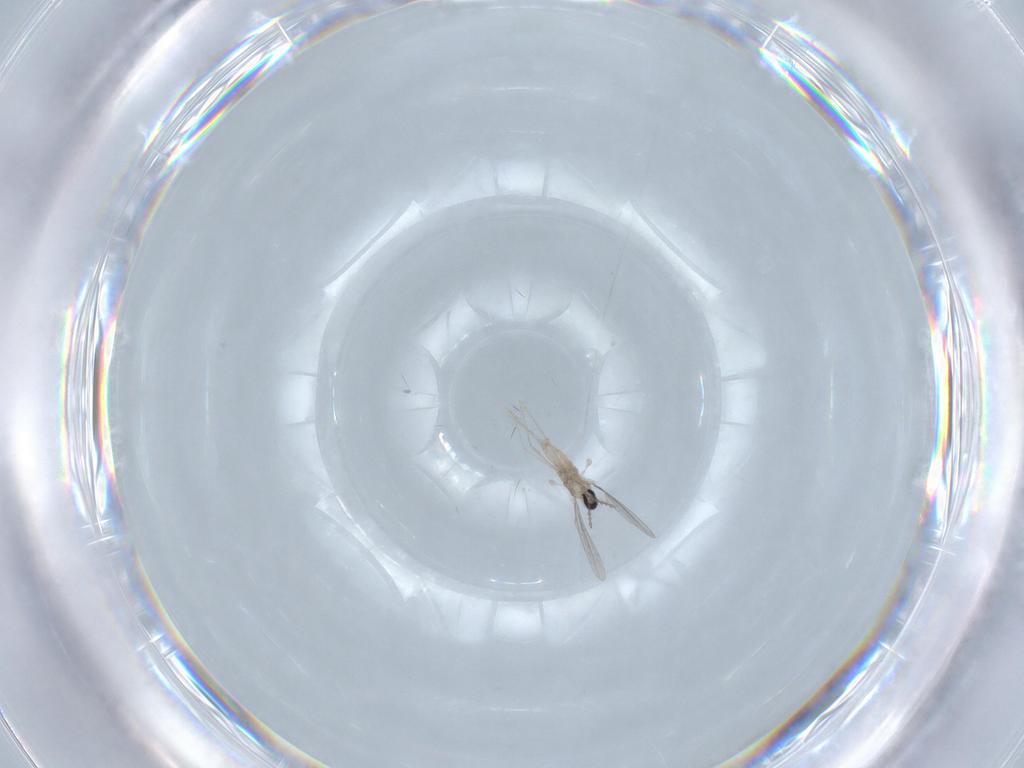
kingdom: Animalia
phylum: Arthropoda
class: Insecta
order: Diptera
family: Cecidomyiidae
